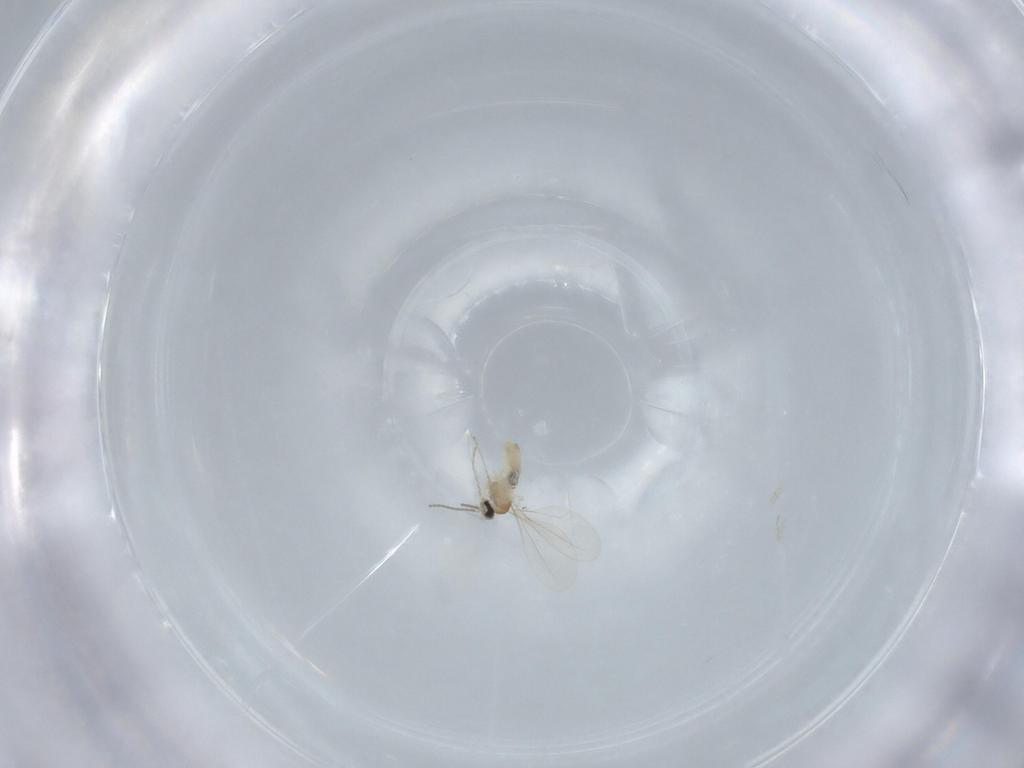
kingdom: Animalia
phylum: Arthropoda
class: Insecta
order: Diptera
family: Cecidomyiidae
